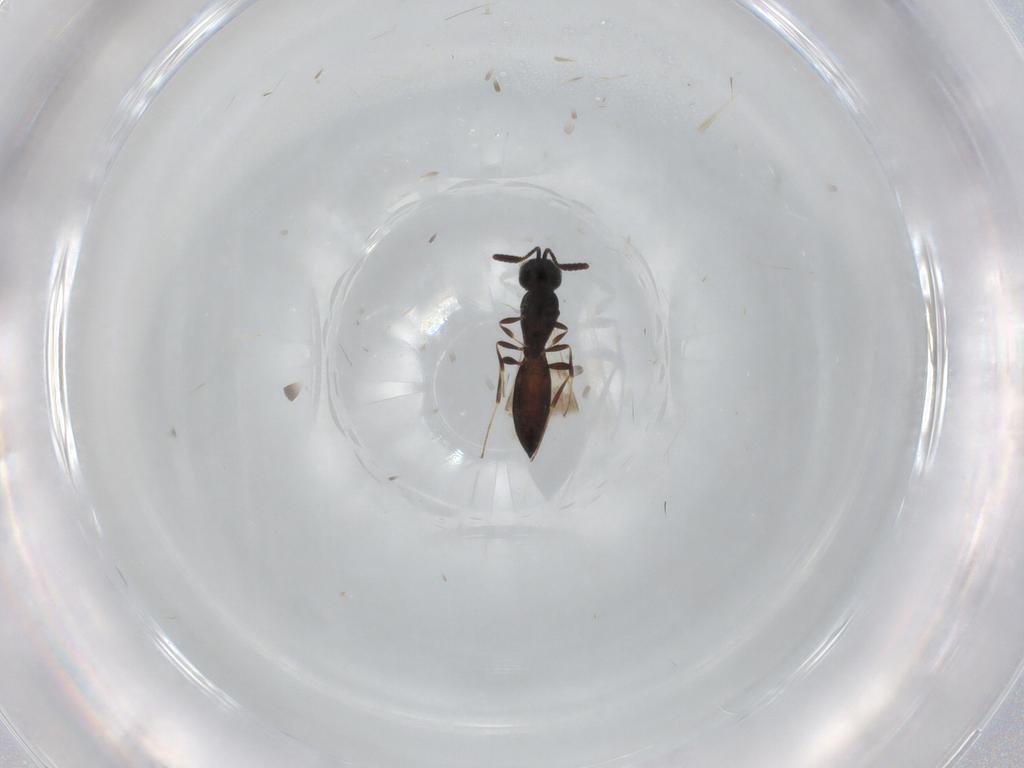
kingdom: Animalia
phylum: Arthropoda
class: Insecta
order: Hymenoptera
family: Scelionidae
